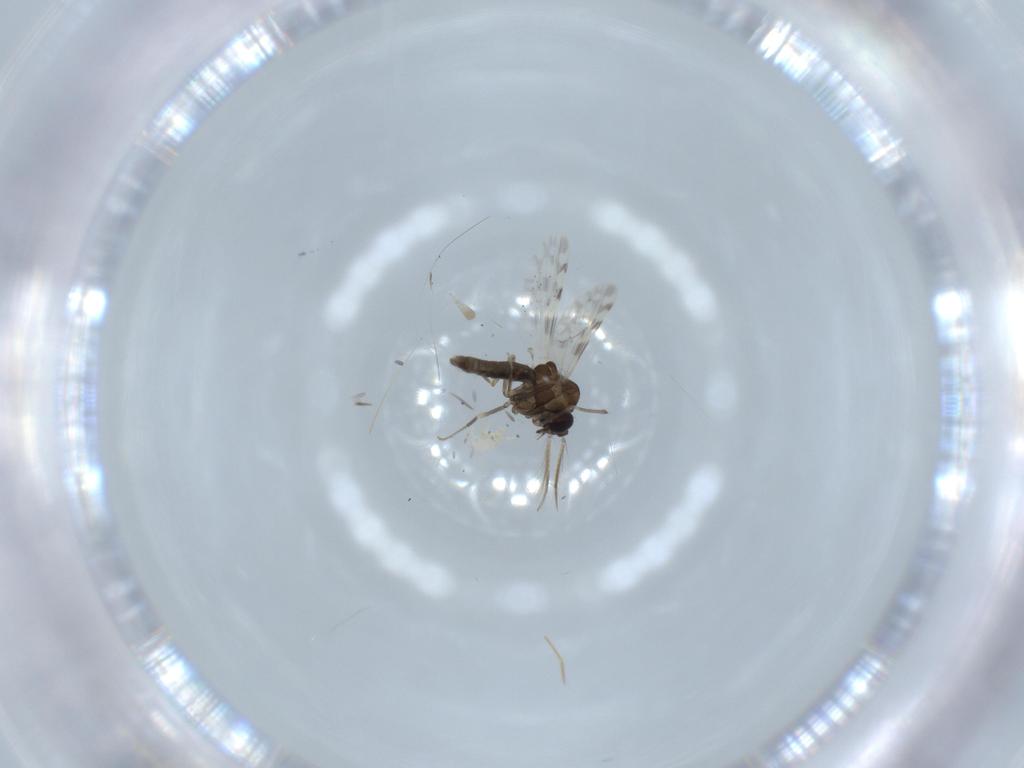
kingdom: Animalia
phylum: Arthropoda
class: Insecta
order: Diptera
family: Ceratopogonidae
